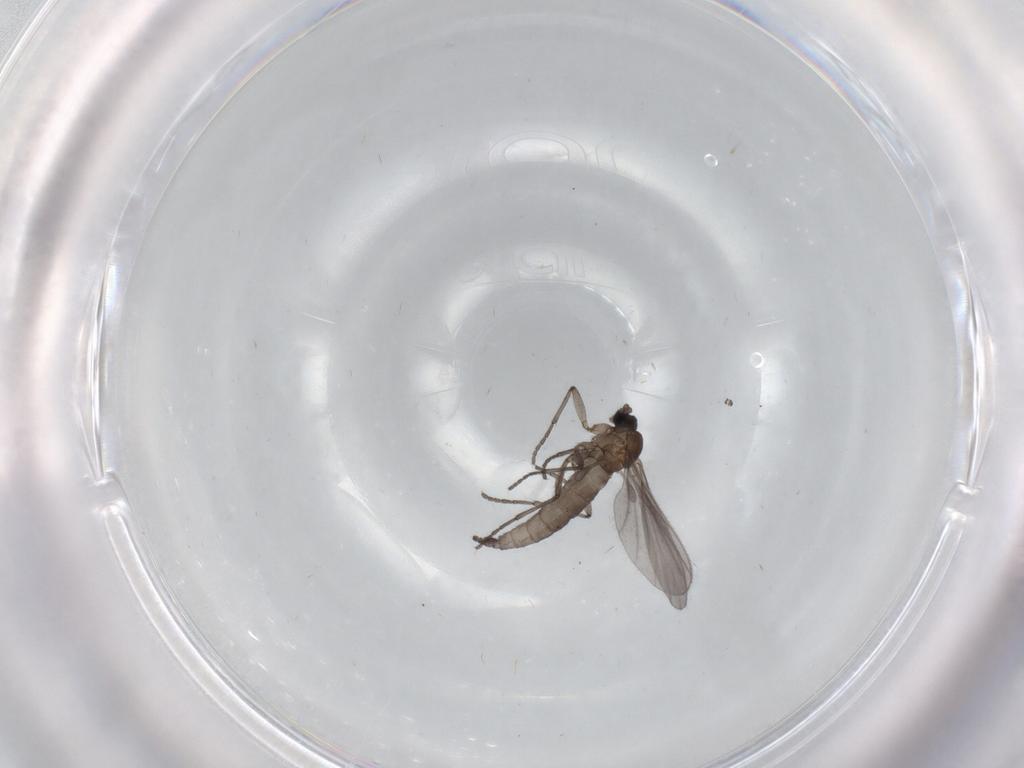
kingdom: Animalia
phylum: Arthropoda
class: Insecta
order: Diptera
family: Sciaridae
